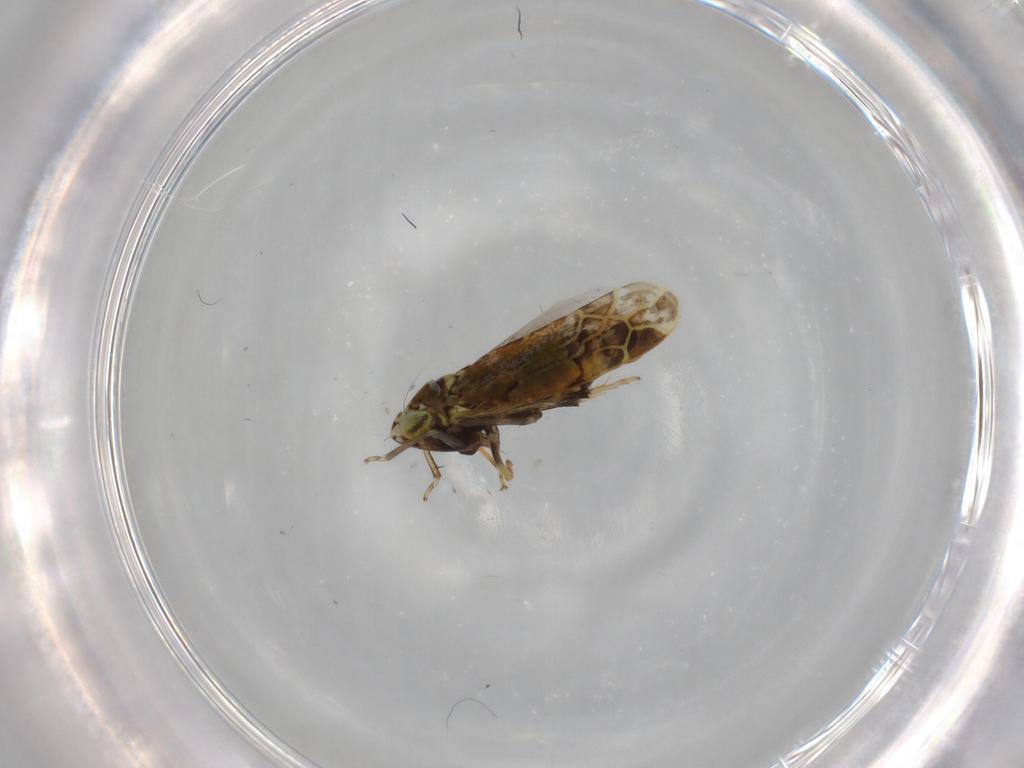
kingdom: Animalia
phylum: Arthropoda
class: Insecta
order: Hemiptera
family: Cicadellidae
